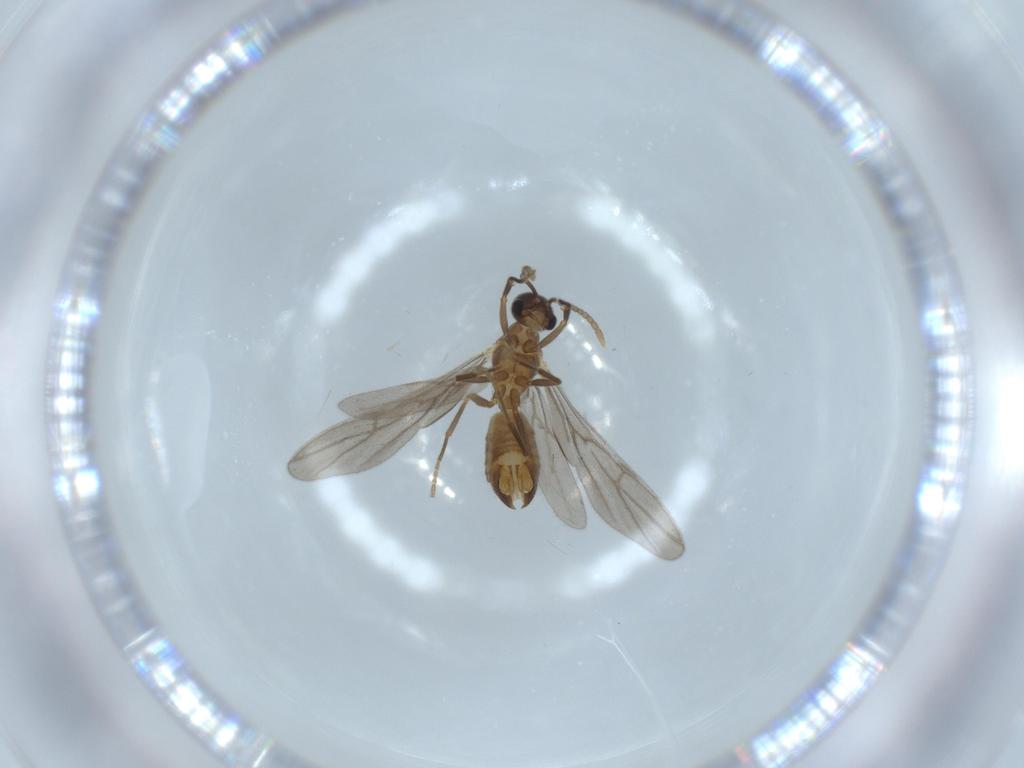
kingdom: Animalia
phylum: Arthropoda
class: Insecta
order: Hymenoptera
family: Formicidae
